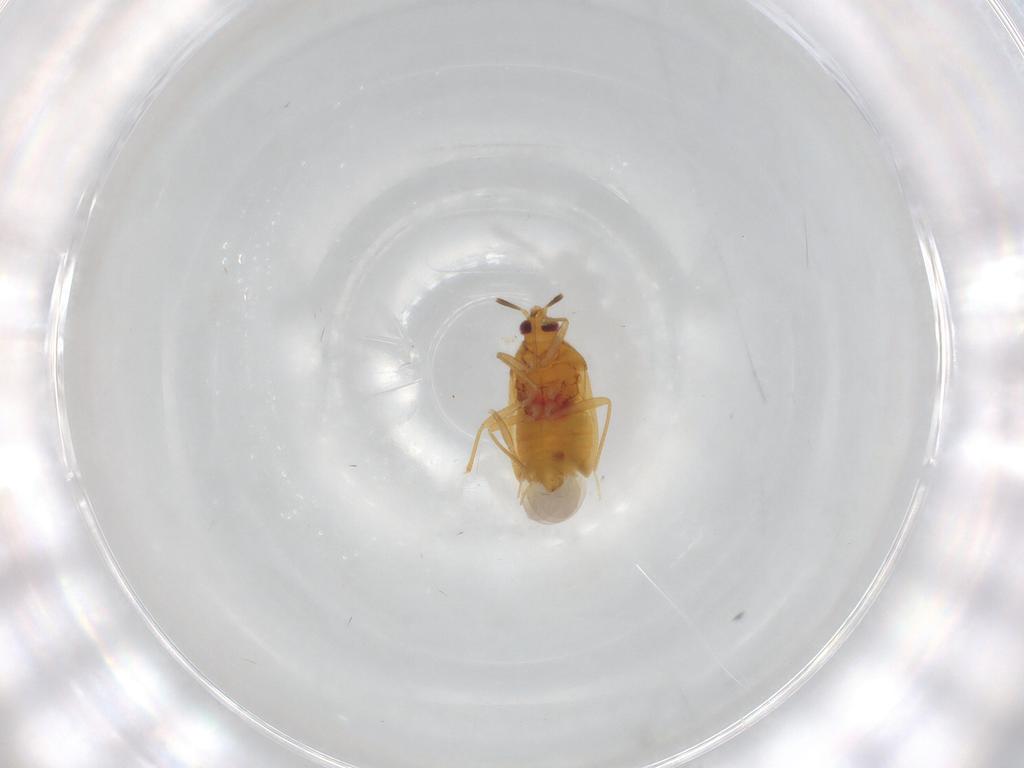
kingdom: Animalia
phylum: Arthropoda
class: Insecta
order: Hemiptera
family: Cicadellidae
